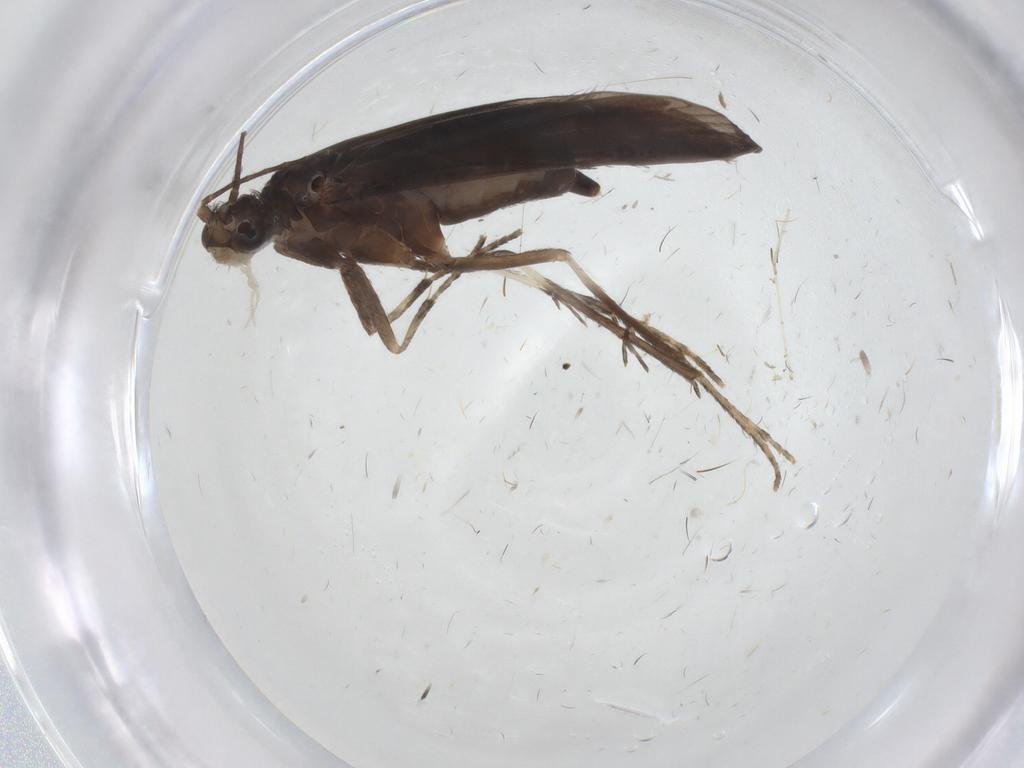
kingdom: Animalia
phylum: Arthropoda
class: Insecta
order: Trichoptera
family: Xiphocentronidae
